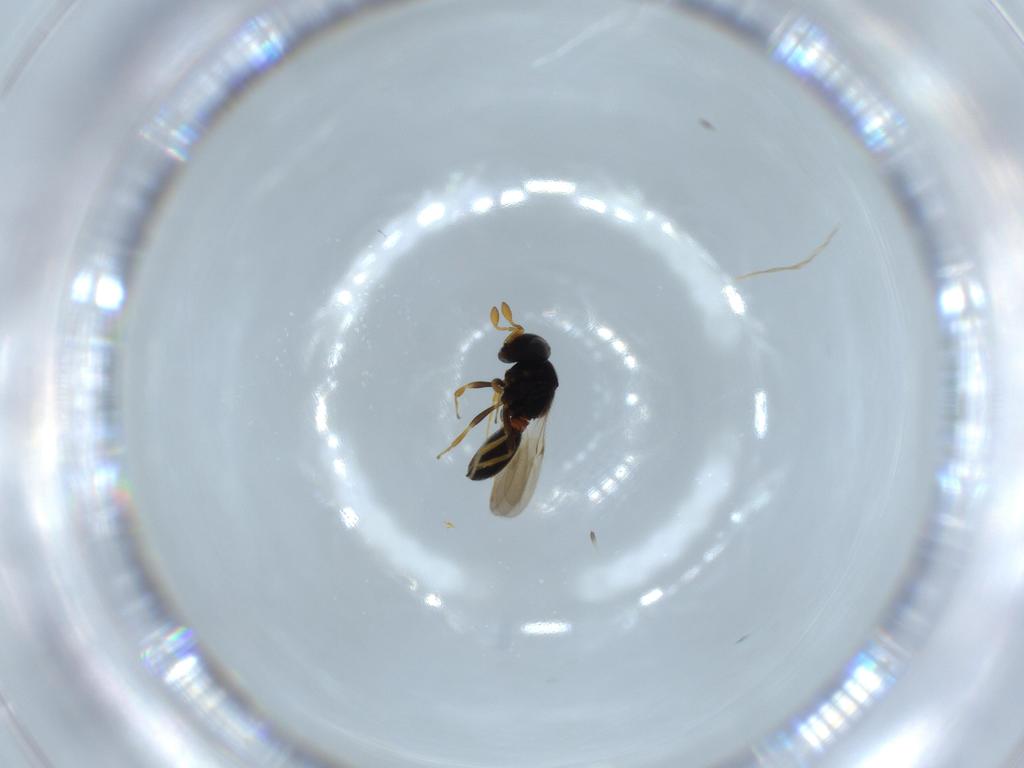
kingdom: Animalia
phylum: Arthropoda
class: Insecta
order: Hymenoptera
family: Scelionidae
